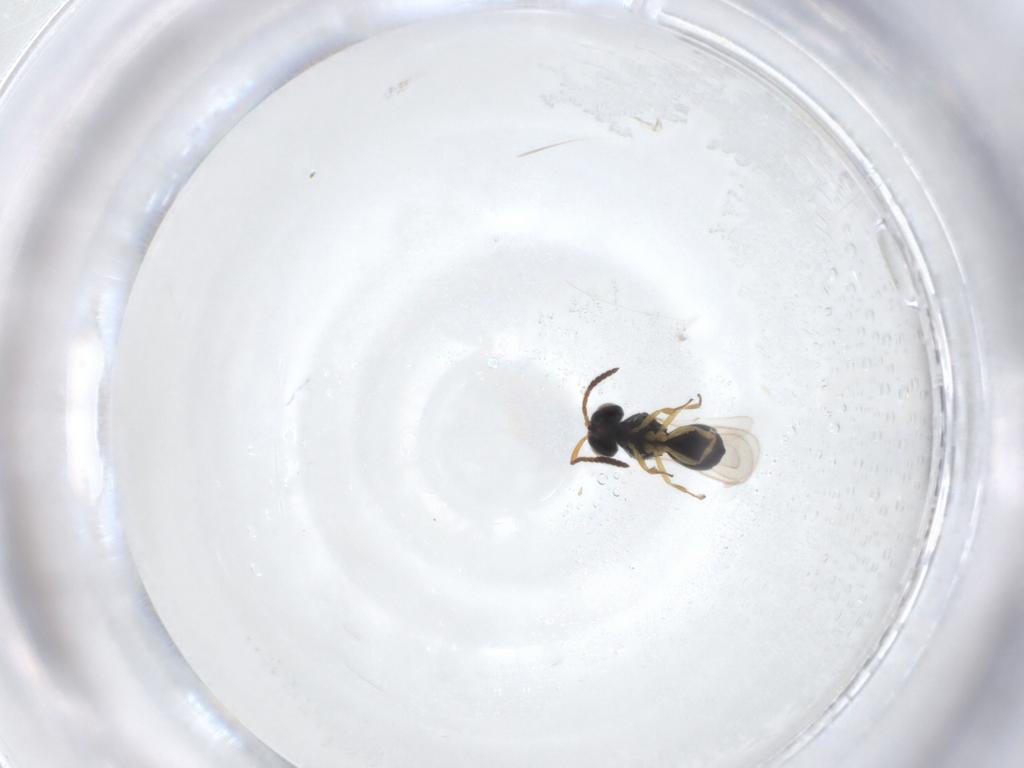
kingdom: Animalia
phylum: Arthropoda
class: Insecta
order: Hymenoptera
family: Scelionidae
